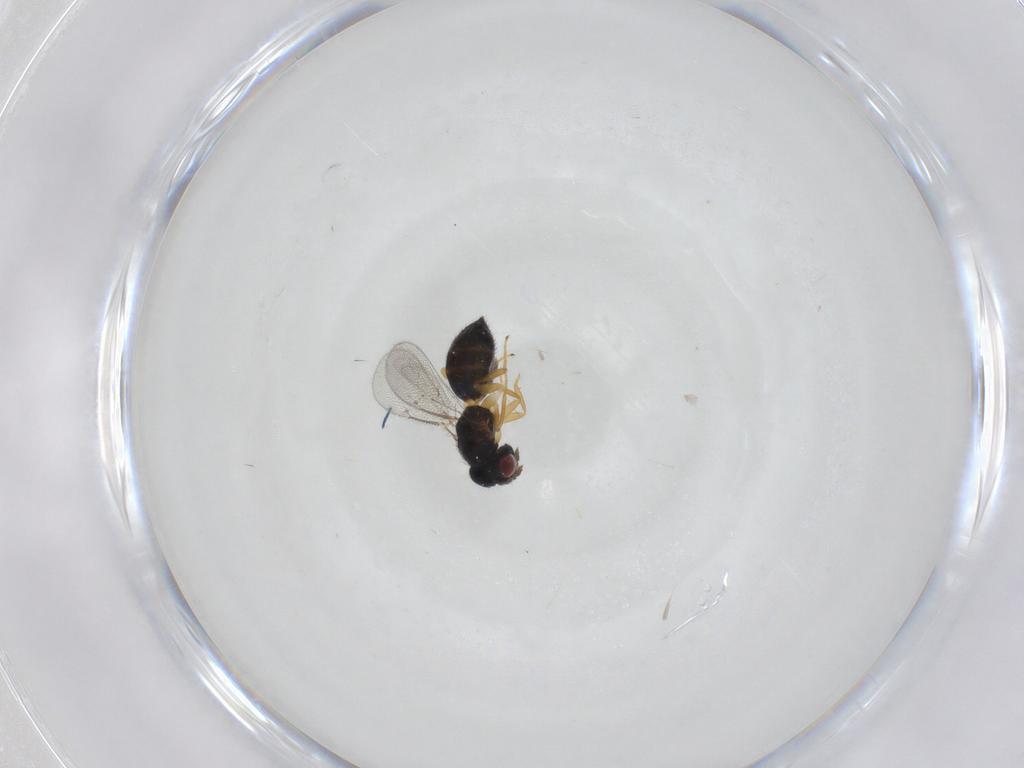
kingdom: Animalia
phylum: Arthropoda
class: Insecta
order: Hymenoptera
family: Eulophidae
